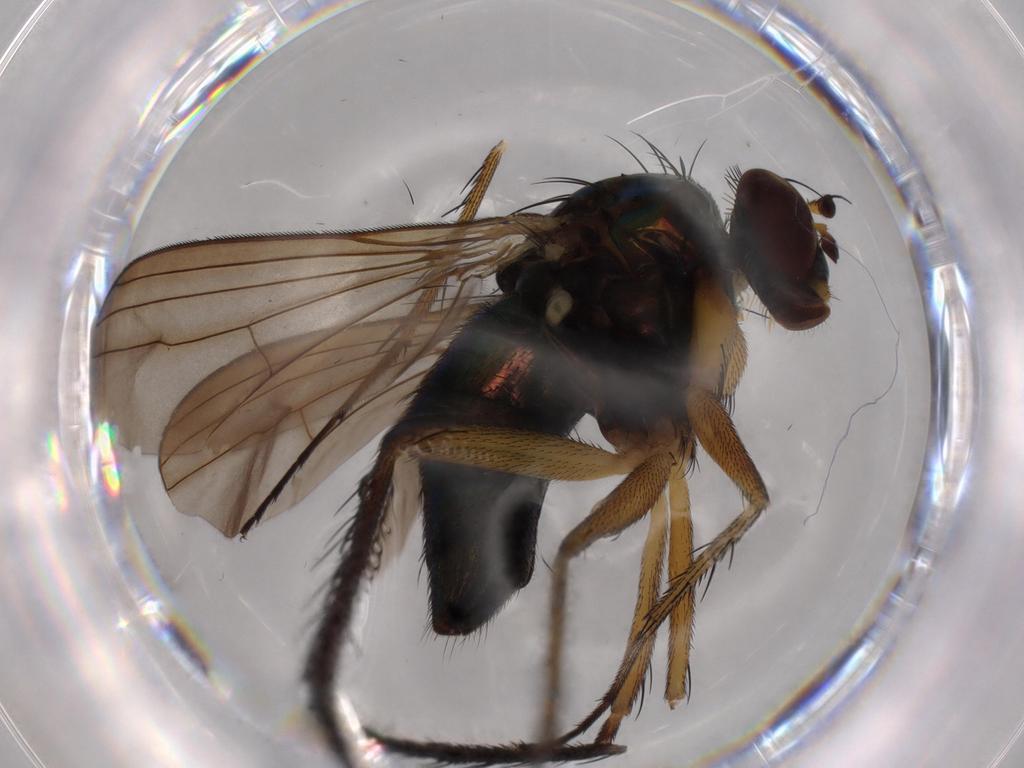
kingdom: Animalia
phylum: Arthropoda
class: Insecta
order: Diptera
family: Dolichopodidae
